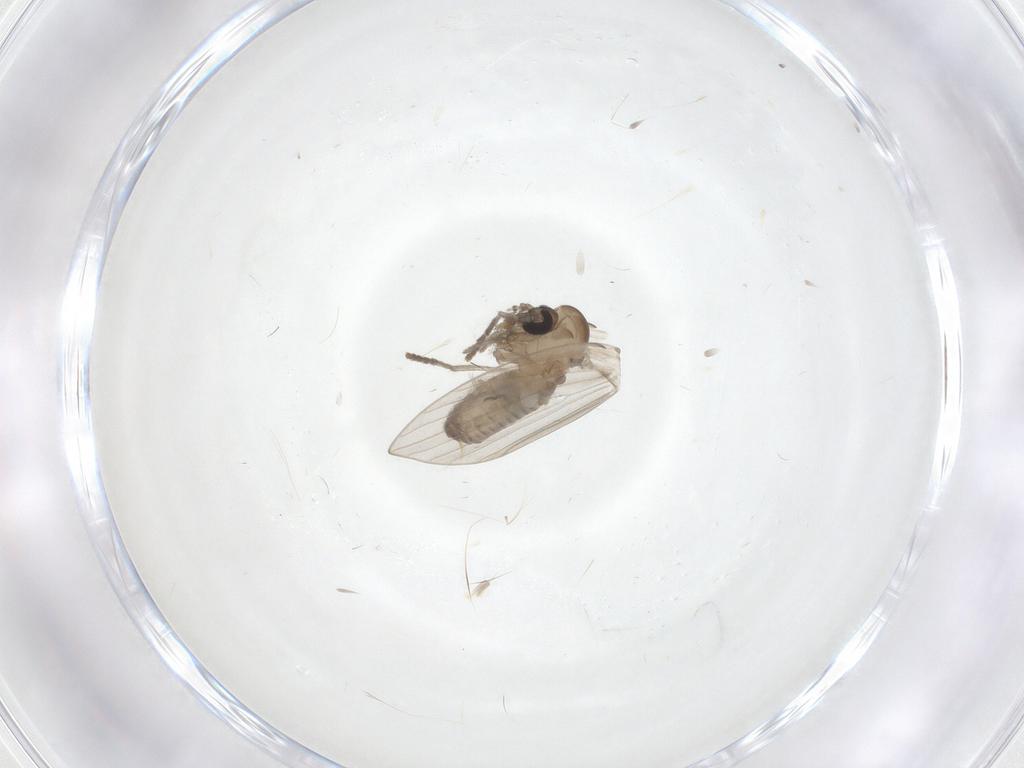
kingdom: Animalia
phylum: Arthropoda
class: Insecta
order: Diptera
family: Psychodidae
